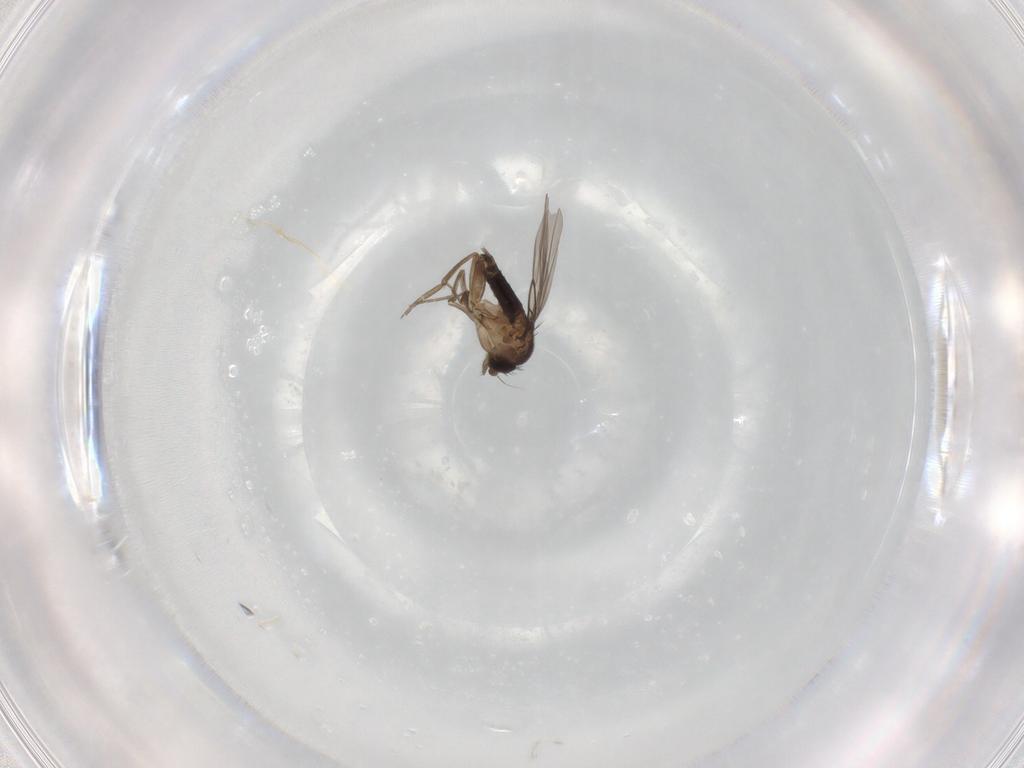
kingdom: Animalia
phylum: Arthropoda
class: Insecta
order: Diptera
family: Phoridae
